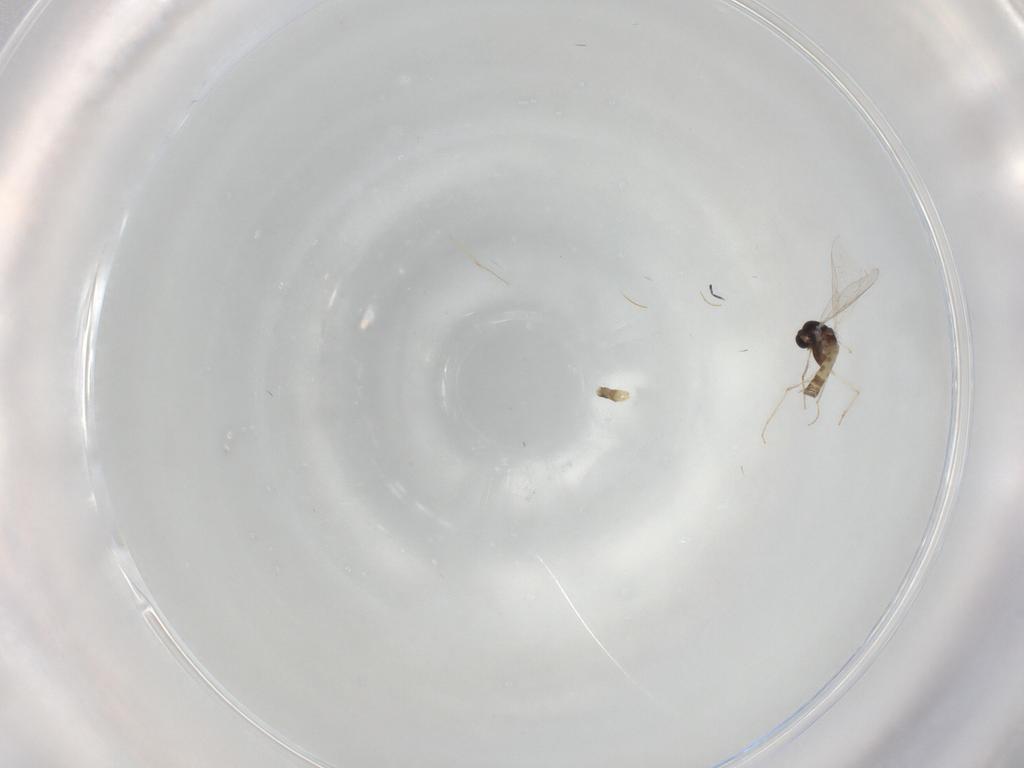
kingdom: Animalia
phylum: Arthropoda
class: Insecta
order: Diptera
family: Chironomidae
